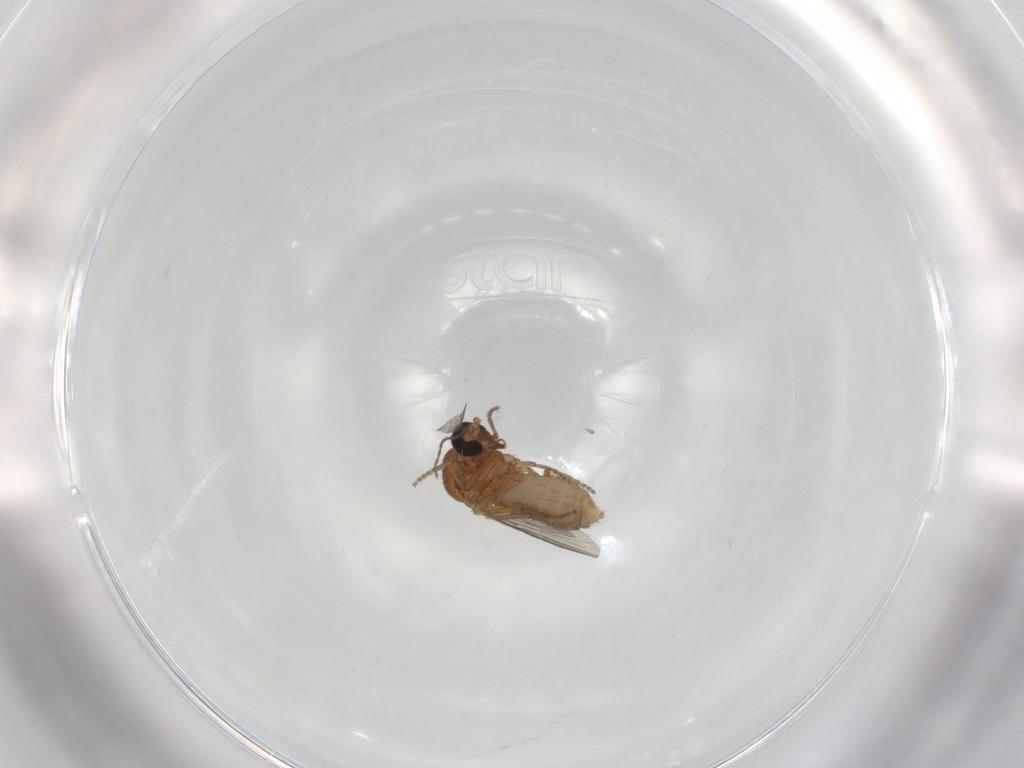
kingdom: Animalia
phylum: Arthropoda
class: Insecta
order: Diptera
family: Ceratopogonidae
